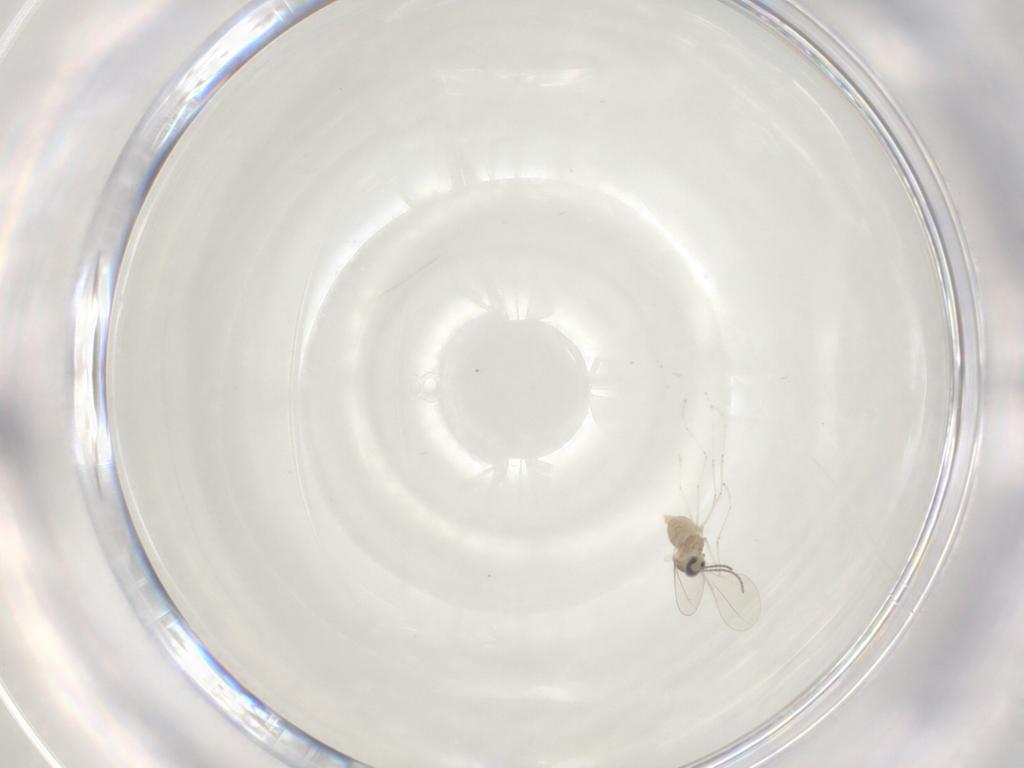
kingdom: Animalia
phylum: Arthropoda
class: Insecta
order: Diptera
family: Cecidomyiidae
